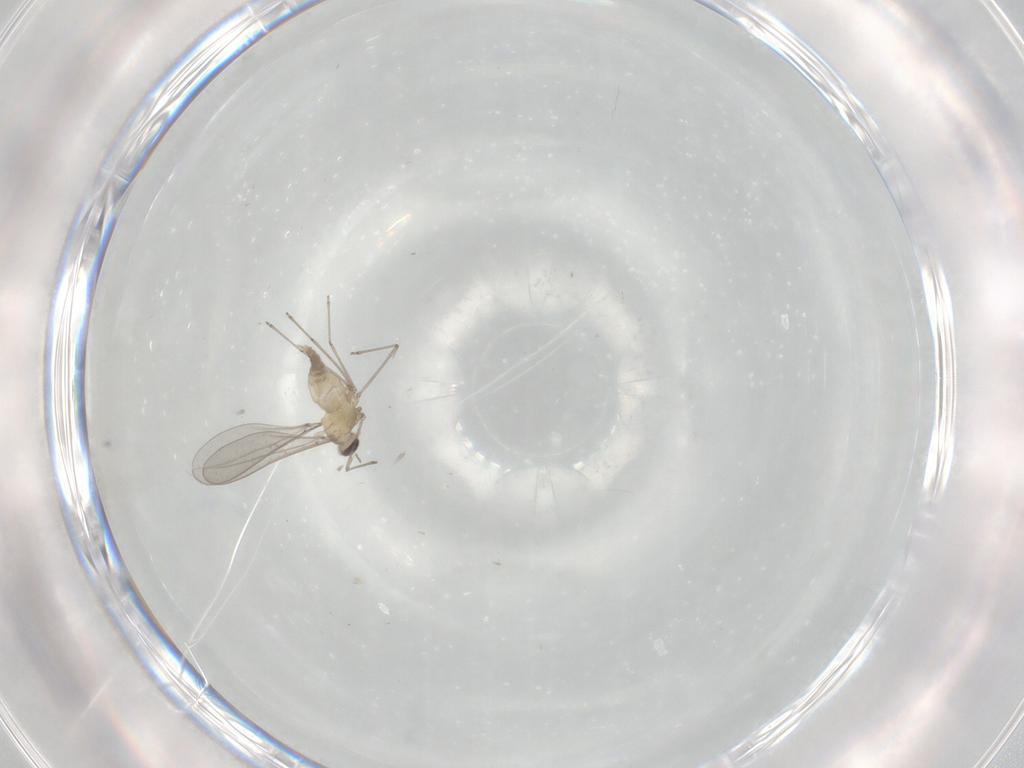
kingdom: Animalia
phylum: Arthropoda
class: Insecta
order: Diptera
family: Cecidomyiidae
